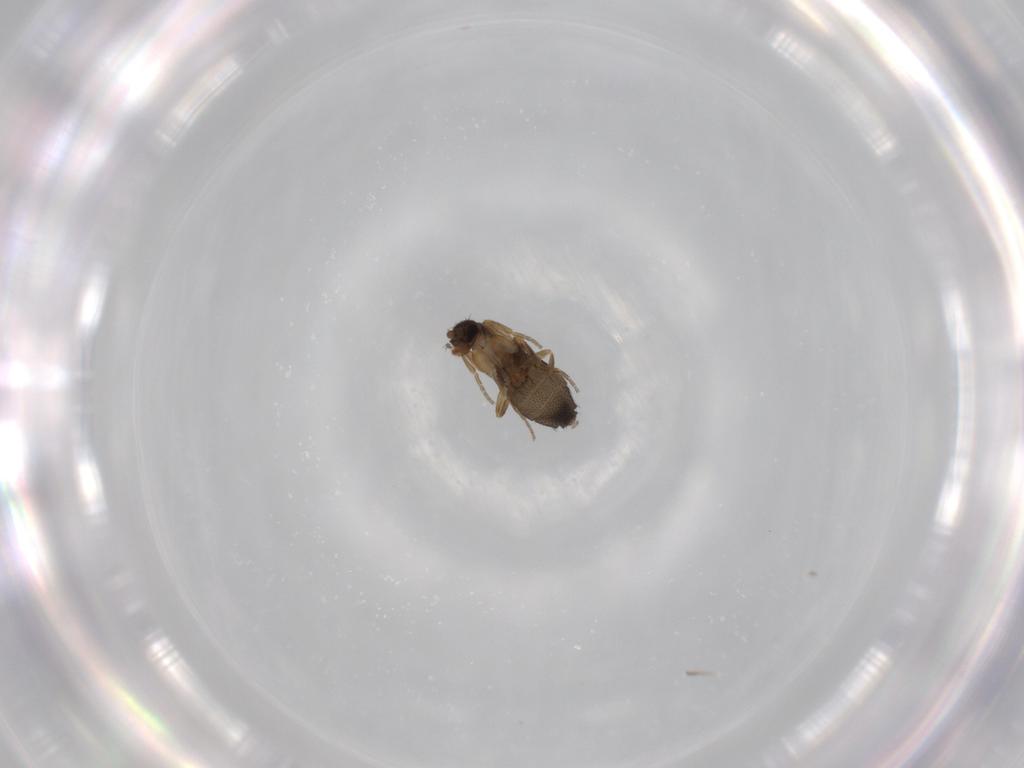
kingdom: Animalia
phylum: Arthropoda
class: Insecta
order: Diptera
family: Phoridae
